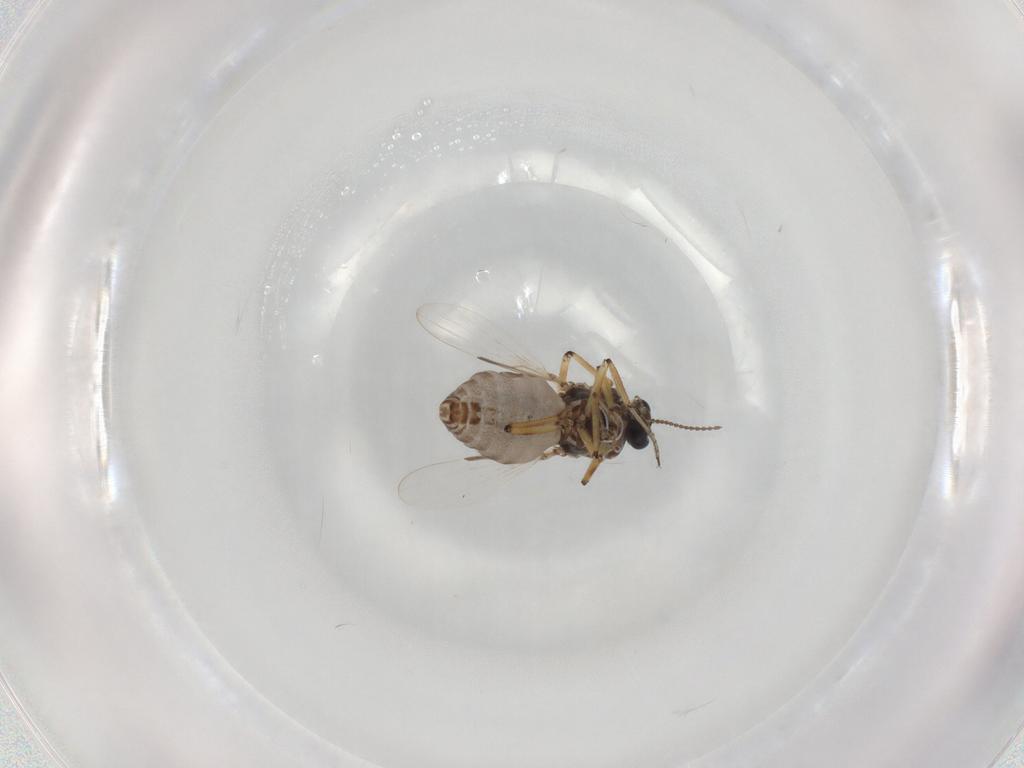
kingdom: Animalia
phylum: Arthropoda
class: Insecta
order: Diptera
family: Ceratopogonidae
